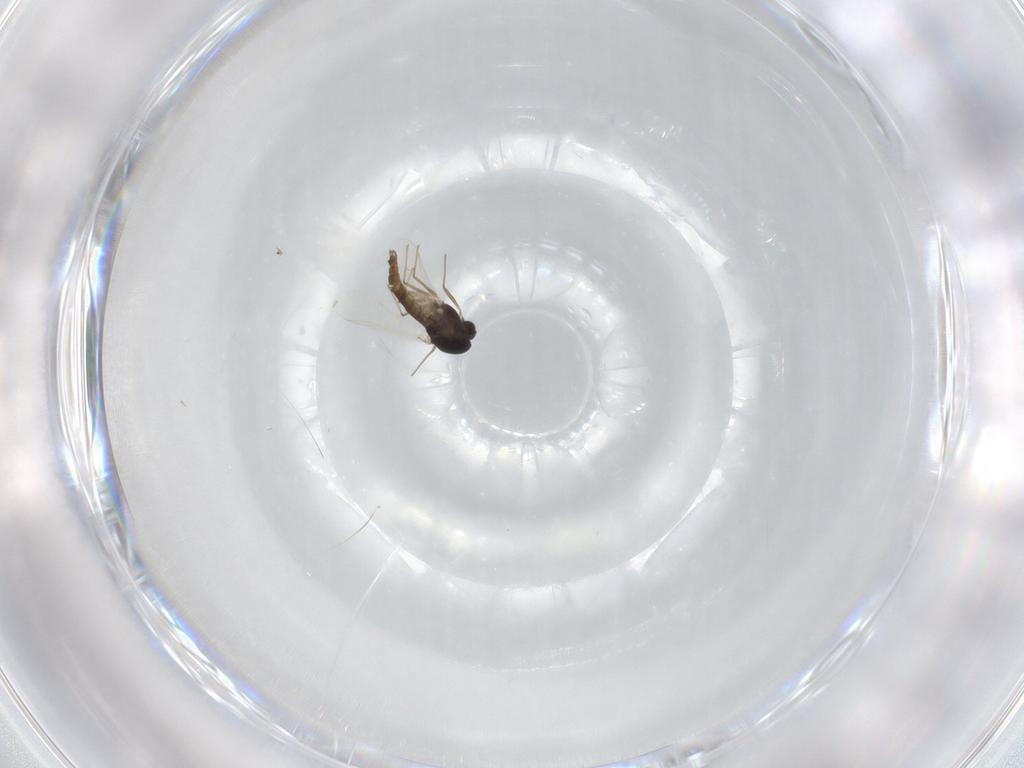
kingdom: Animalia
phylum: Arthropoda
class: Insecta
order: Diptera
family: Chironomidae
